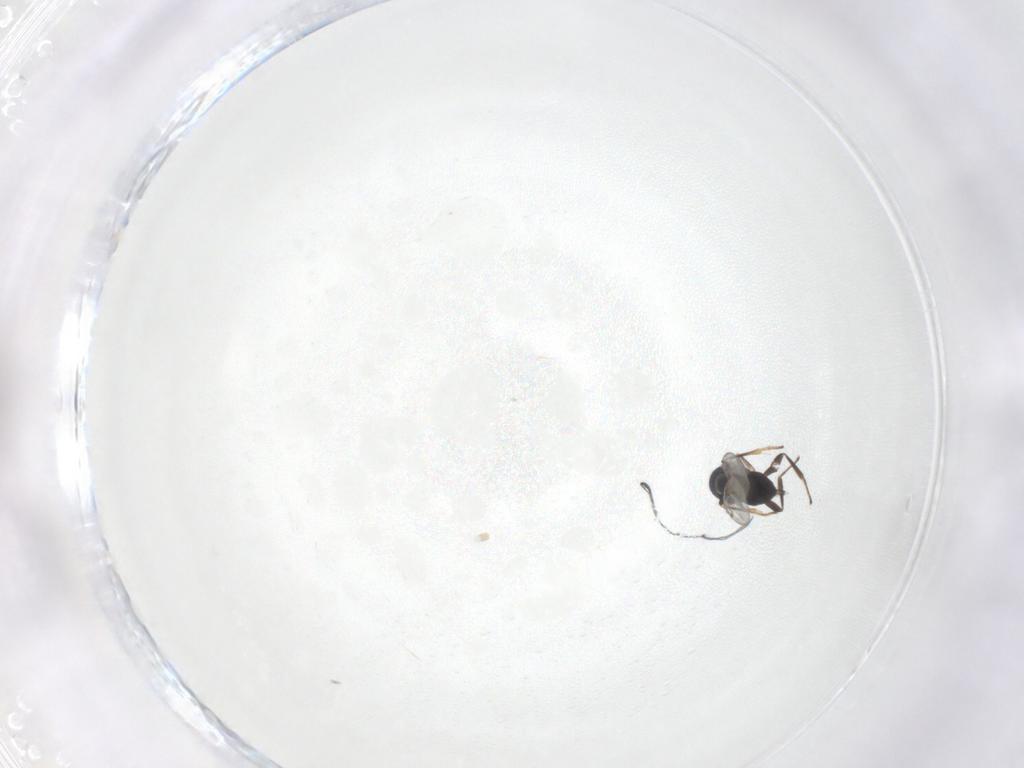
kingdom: Animalia
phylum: Arthropoda
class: Insecta
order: Hymenoptera
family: Encyrtidae
